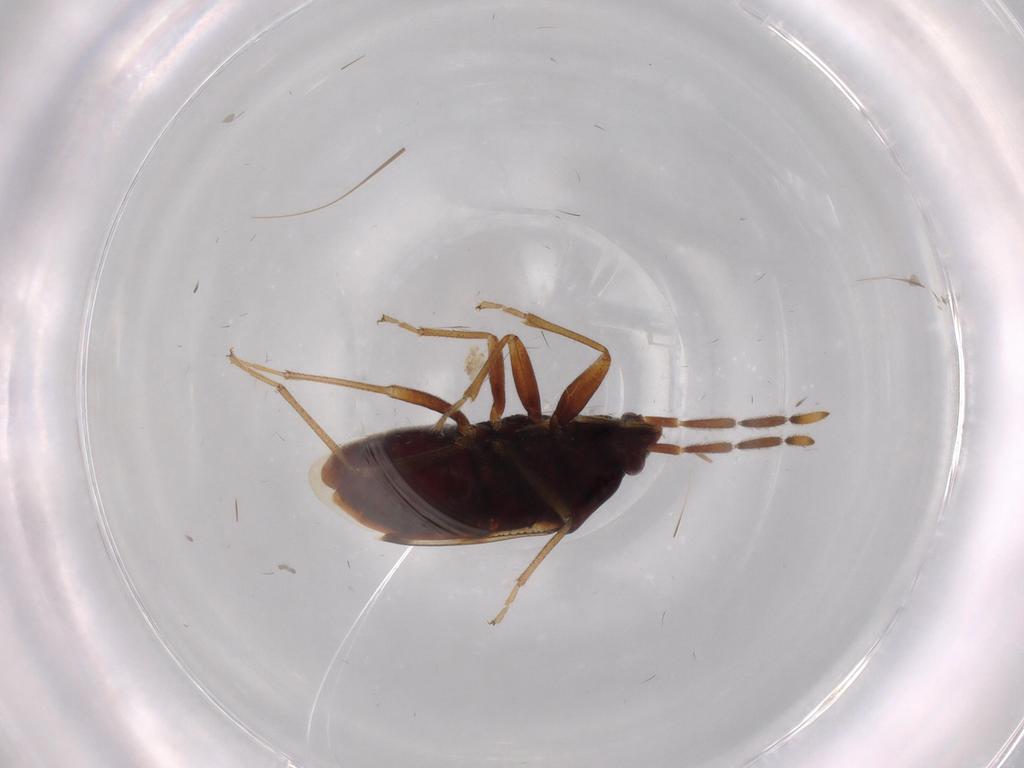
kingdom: Animalia
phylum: Arthropoda
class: Insecta
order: Hemiptera
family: Rhyparochromidae
